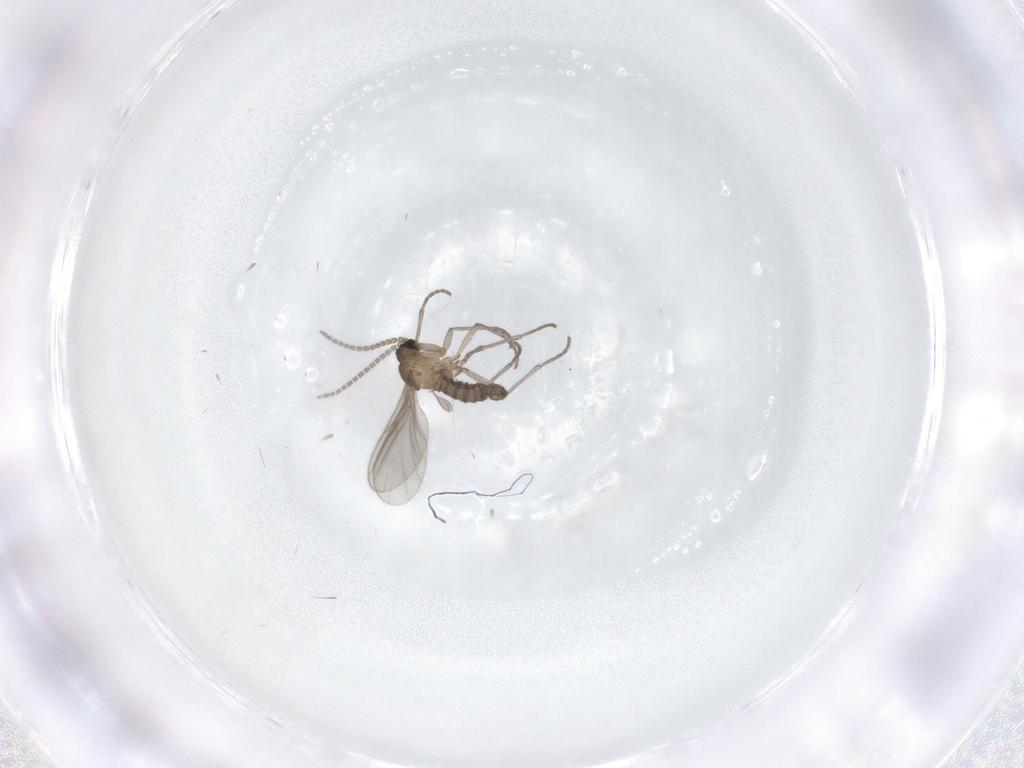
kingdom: Animalia
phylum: Arthropoda
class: Insecta
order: Diptera
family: Sciaridae
